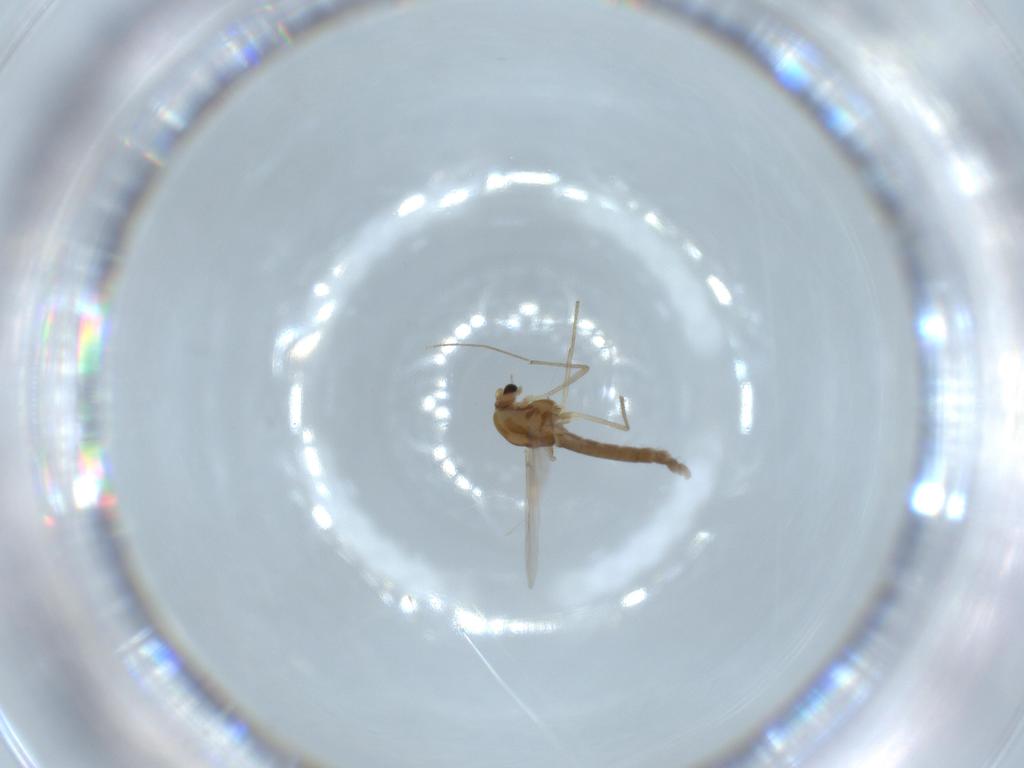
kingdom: Animalia
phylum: Arthropoda
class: Insecta
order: Diptera
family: Chironomidae
